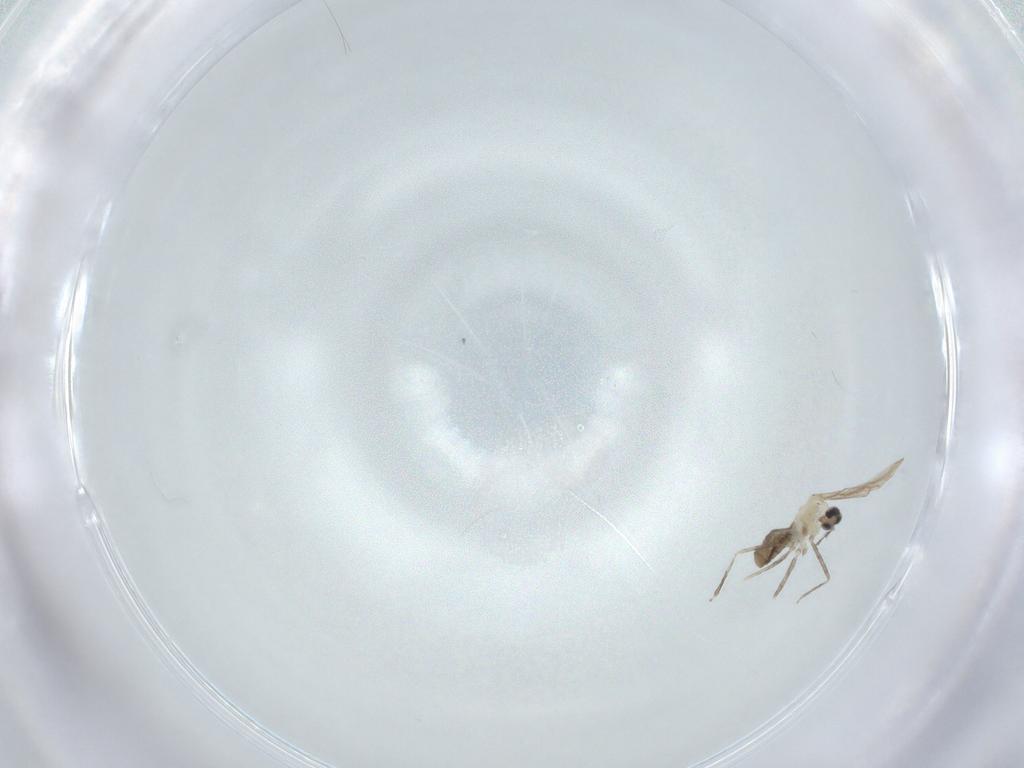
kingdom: Animalia
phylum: Arthropoda
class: Insecta
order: Diptera
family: Cecidomyiidae
